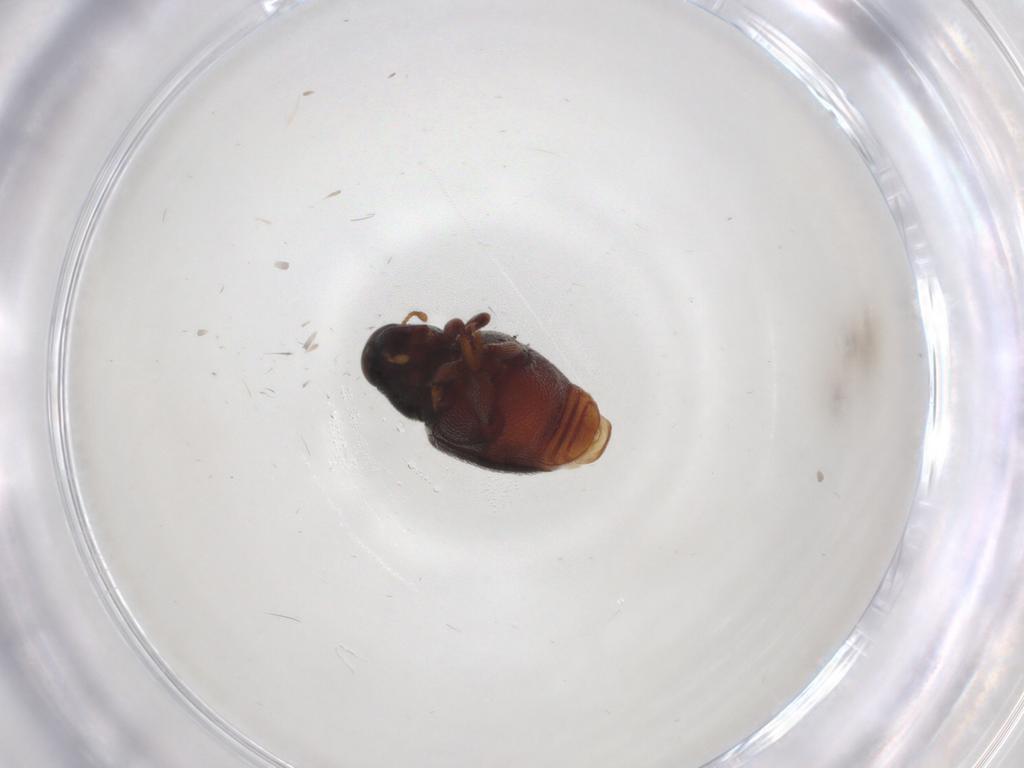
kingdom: Animalia
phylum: Arthropoda
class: Insecta
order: Coleoptera
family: Curculionidae
